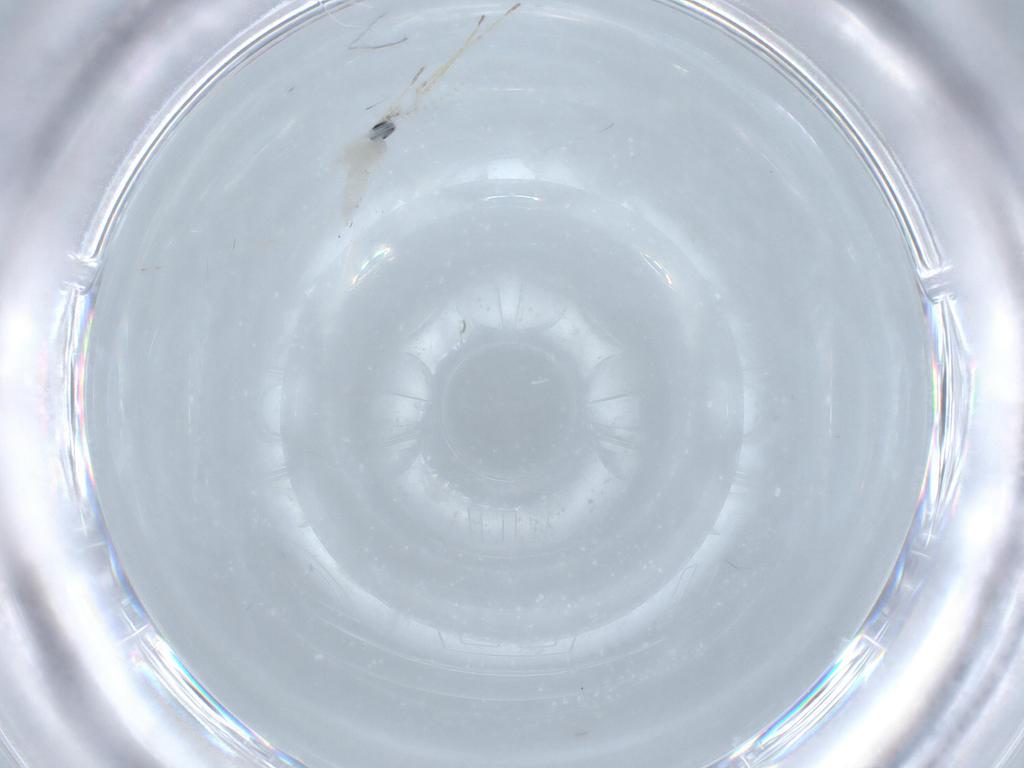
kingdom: Animalia
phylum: Arthropoda
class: Insecta
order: Diptera
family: Cecidomyiidae
